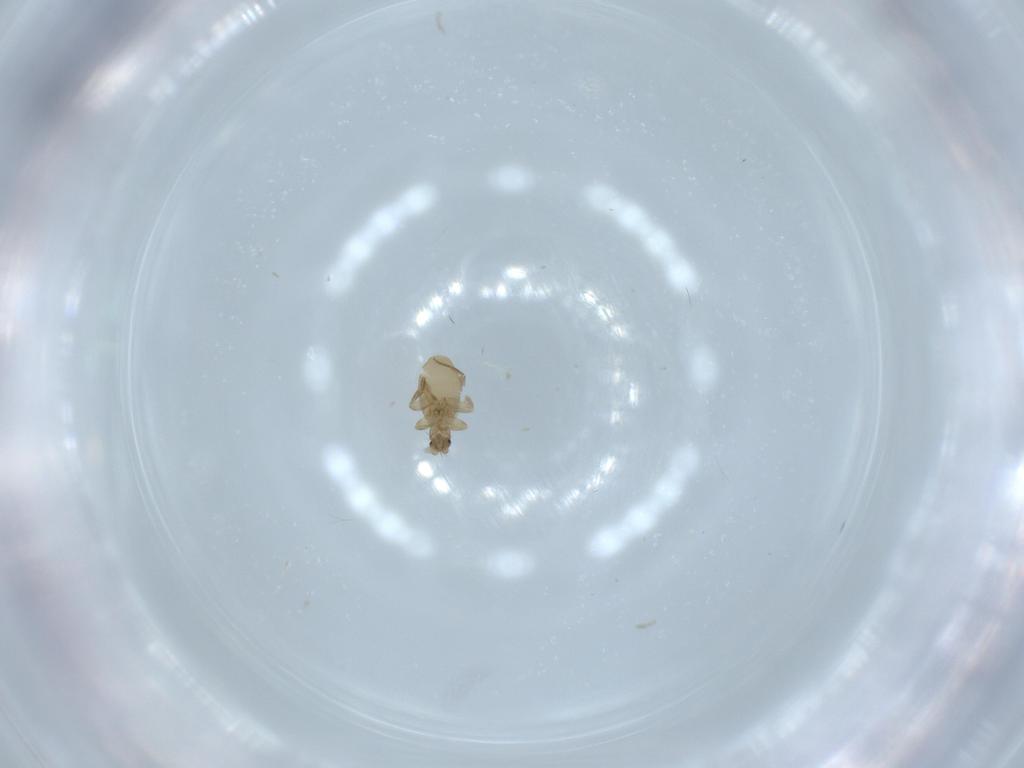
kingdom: Animalia
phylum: Arthropoda
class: Insecta
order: Diptera
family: Phoridae
